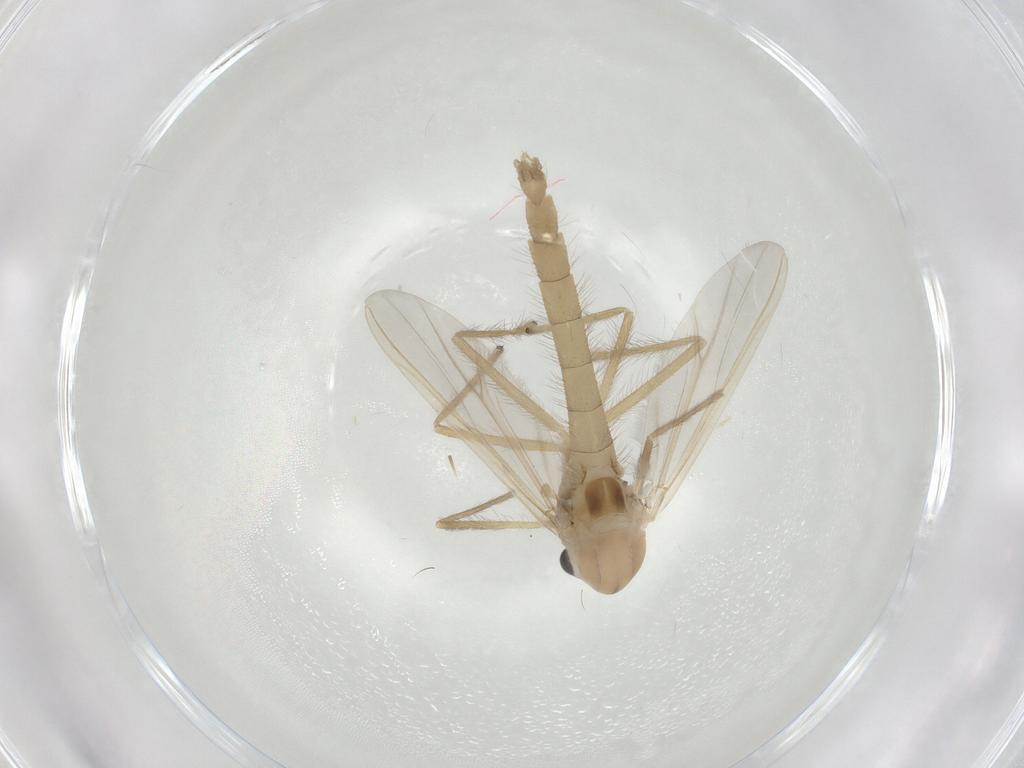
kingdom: Animalia
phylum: Arthropoda
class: Insecta
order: Diptera
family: Chironomidae
